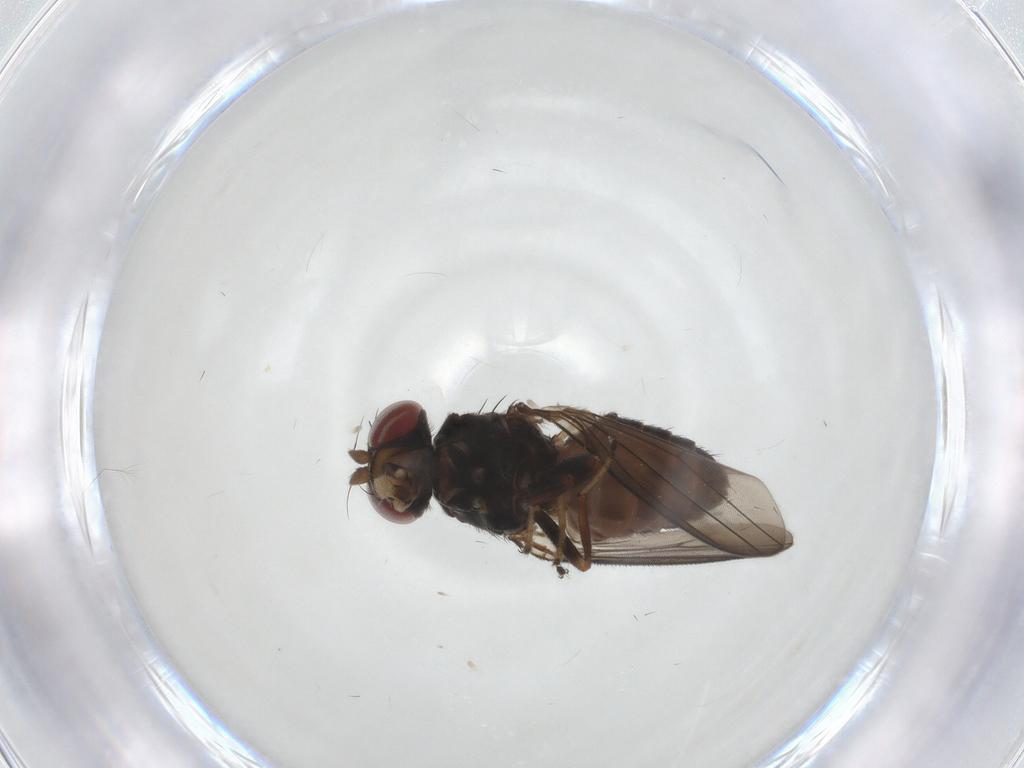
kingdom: Animalia
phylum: Arthropoda
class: Insecta
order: Diptera
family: Aulacigastridae
